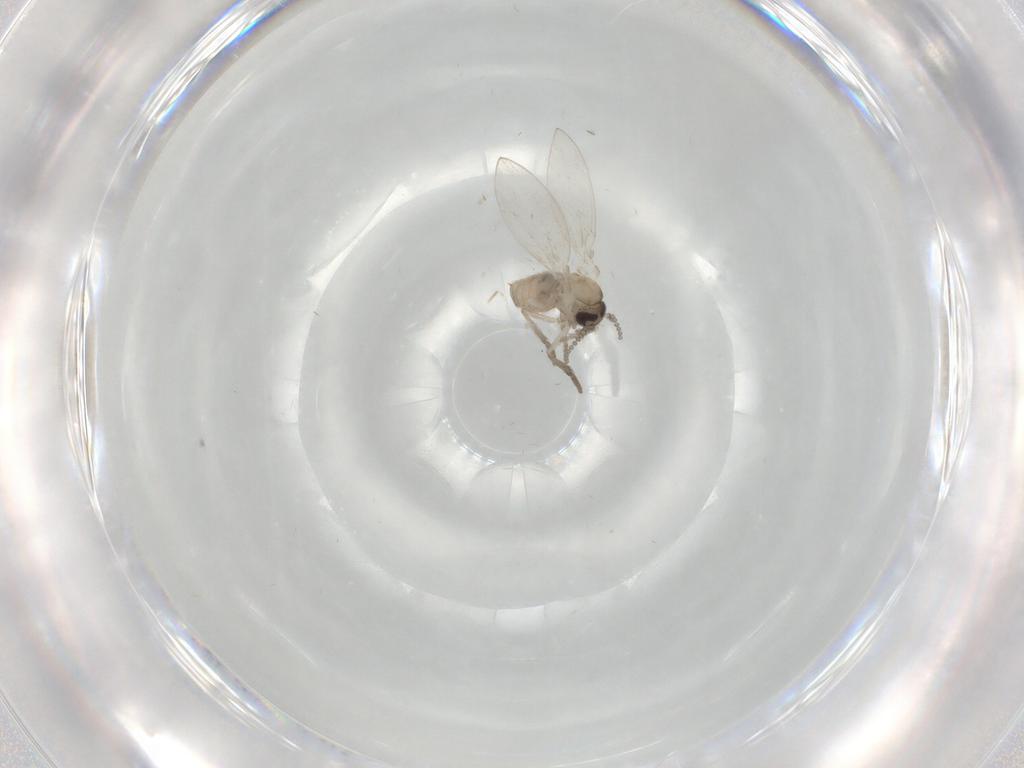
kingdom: Animalia
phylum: Arthropoda
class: Insecta
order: Diptera
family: Psychodidae
